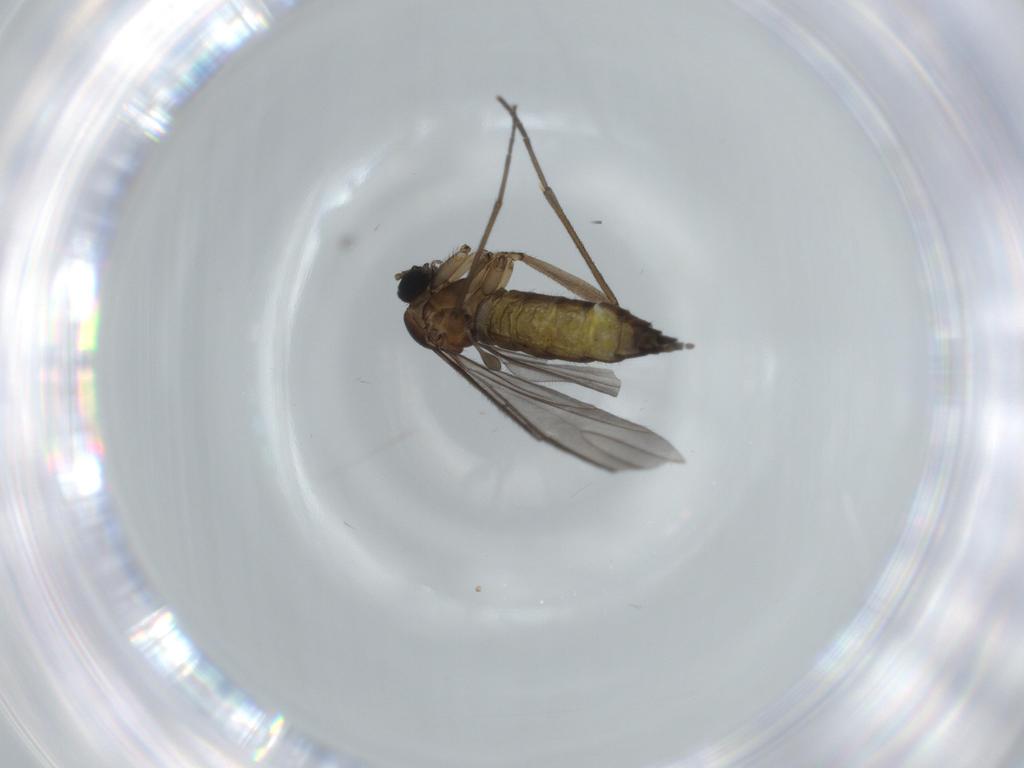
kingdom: Animalia
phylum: Arthropoda
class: Insecta
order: Diptera
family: Sciaridae
